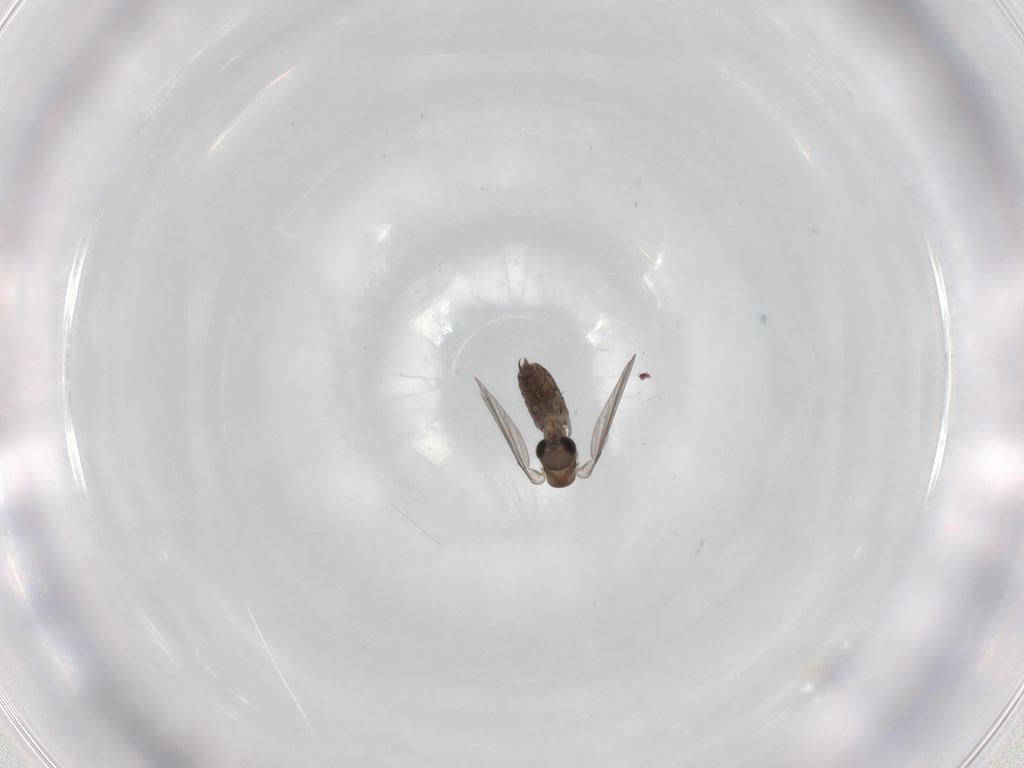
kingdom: Animalia
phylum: Arthropoda
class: Insecta
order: Diptera
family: Psychodidae
